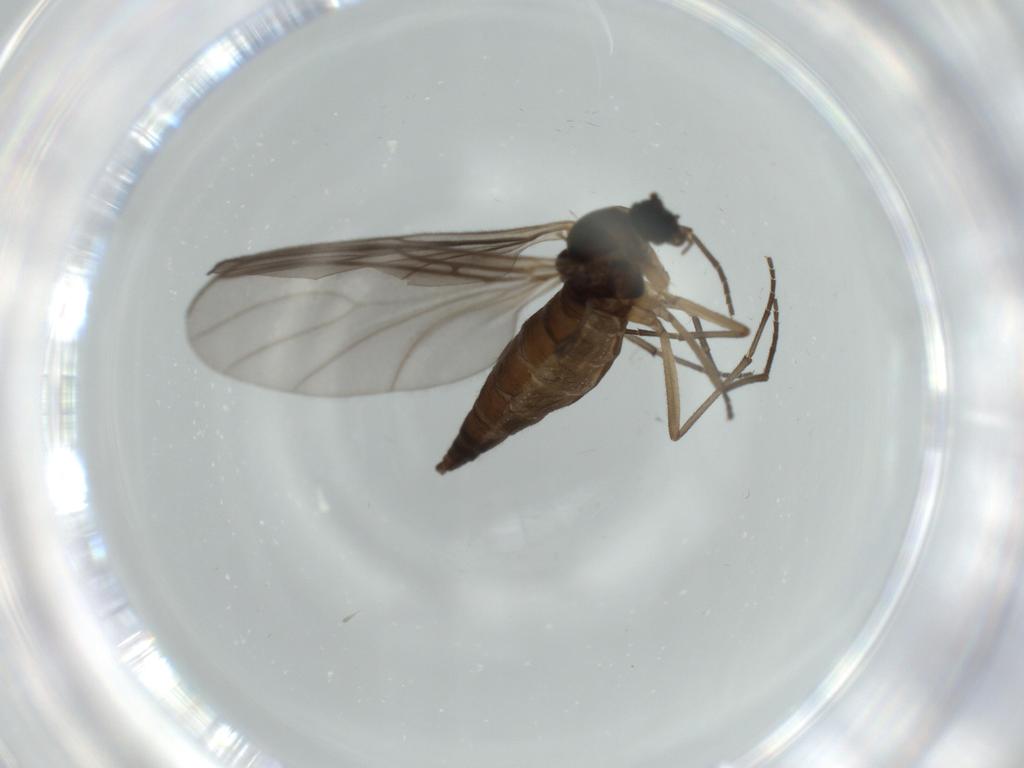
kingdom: Animalia
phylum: Arthropoda
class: Insecta
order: Diptera
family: Sciaridae
